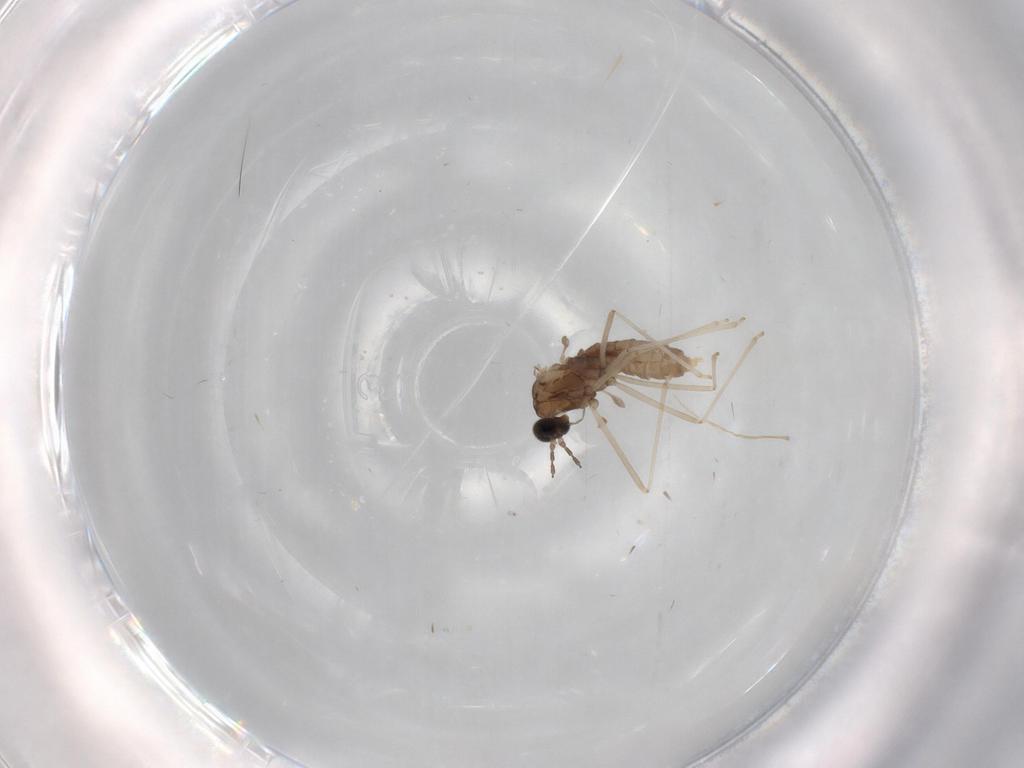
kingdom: Animalia
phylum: Arthropoda
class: Insecta
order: Diptera
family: Cecidomyiidae
